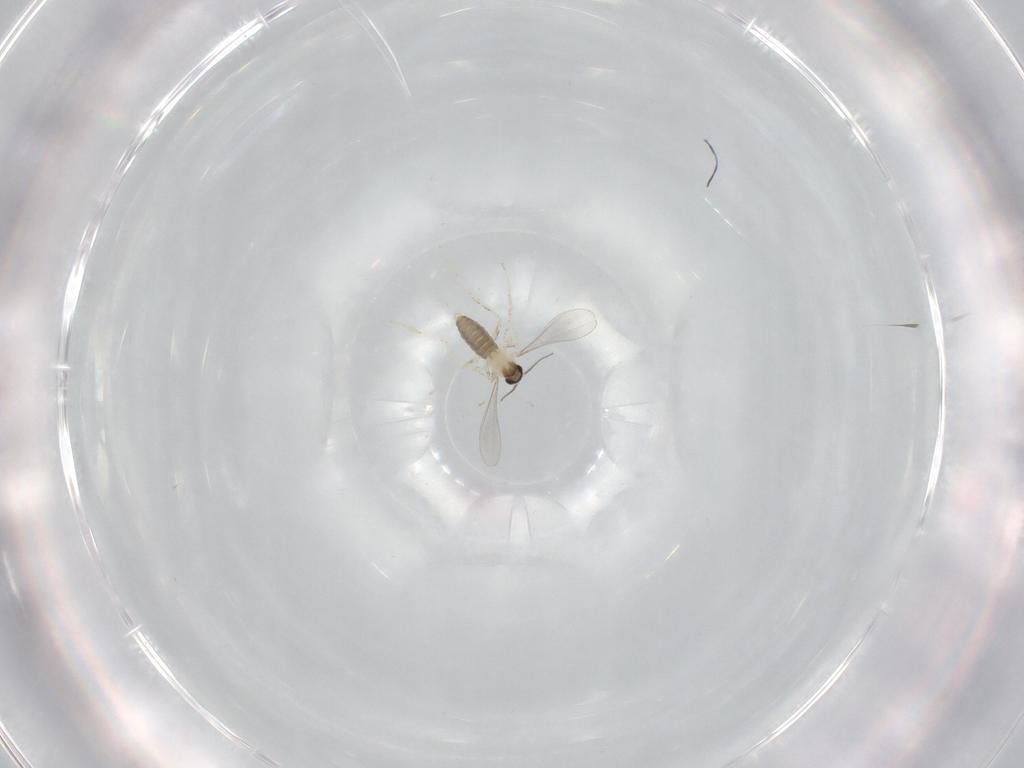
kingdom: Animalia
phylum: Arthropoda
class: Insecta
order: Diptera
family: Cecidomyiidae
